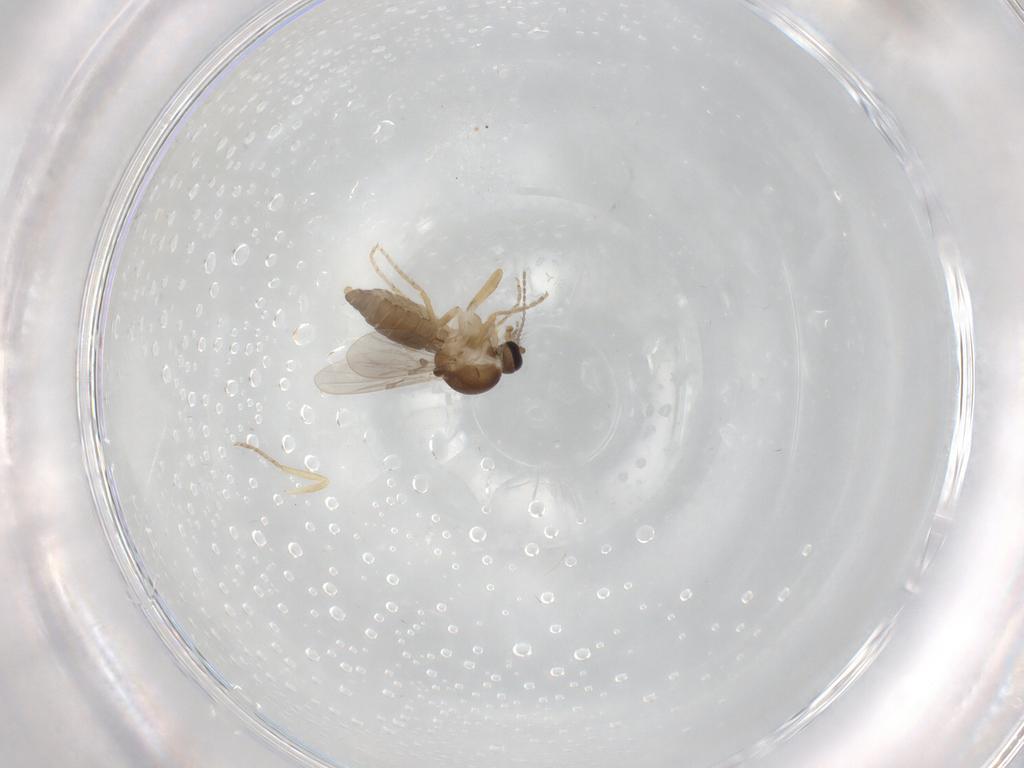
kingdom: Animalia
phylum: Arthropoda
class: Insecta
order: Diptera
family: Ceratopogonidae
